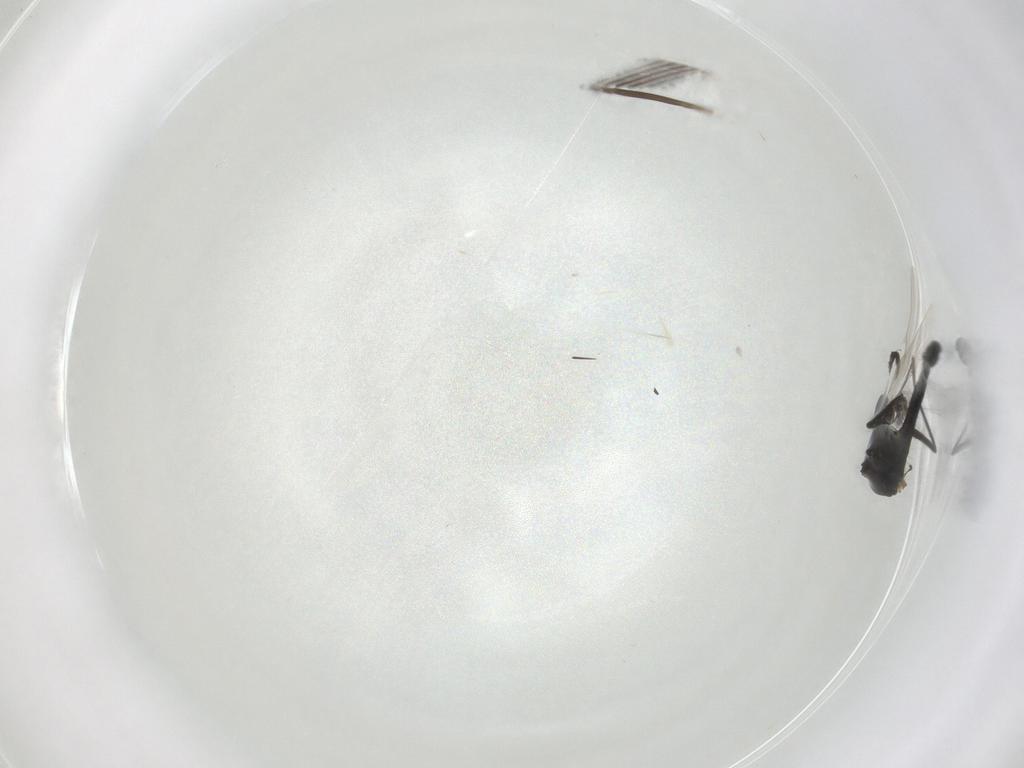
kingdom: Animalia
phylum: Arthropoda
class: Insecta
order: Diptera
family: Chironomidae
